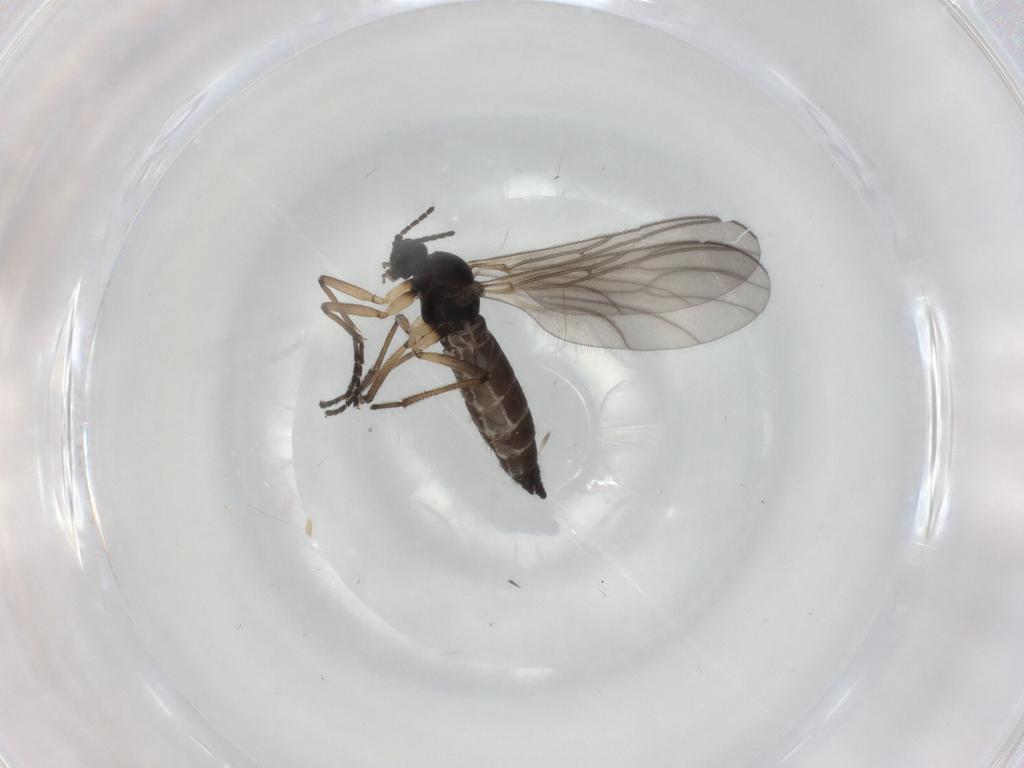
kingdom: Animalia
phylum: Arthropoda
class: Insecta
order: Diptera
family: Sciaridae
